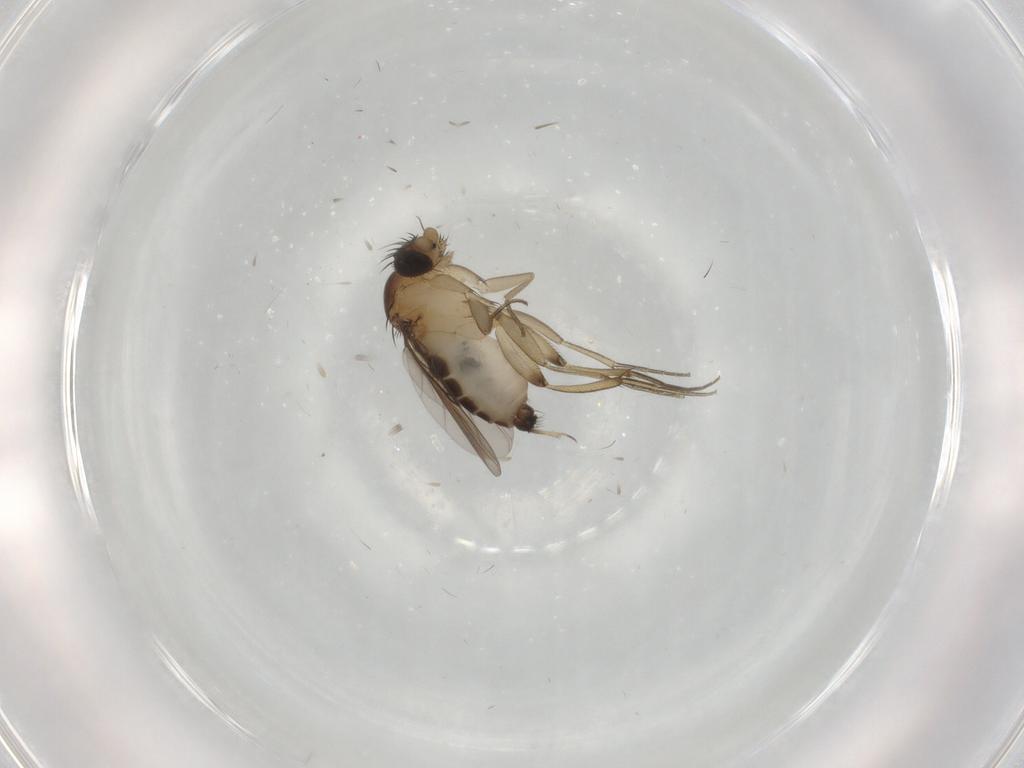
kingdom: Animalia
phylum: Arthropoda
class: Insecta
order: Diptera
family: Phoridae
